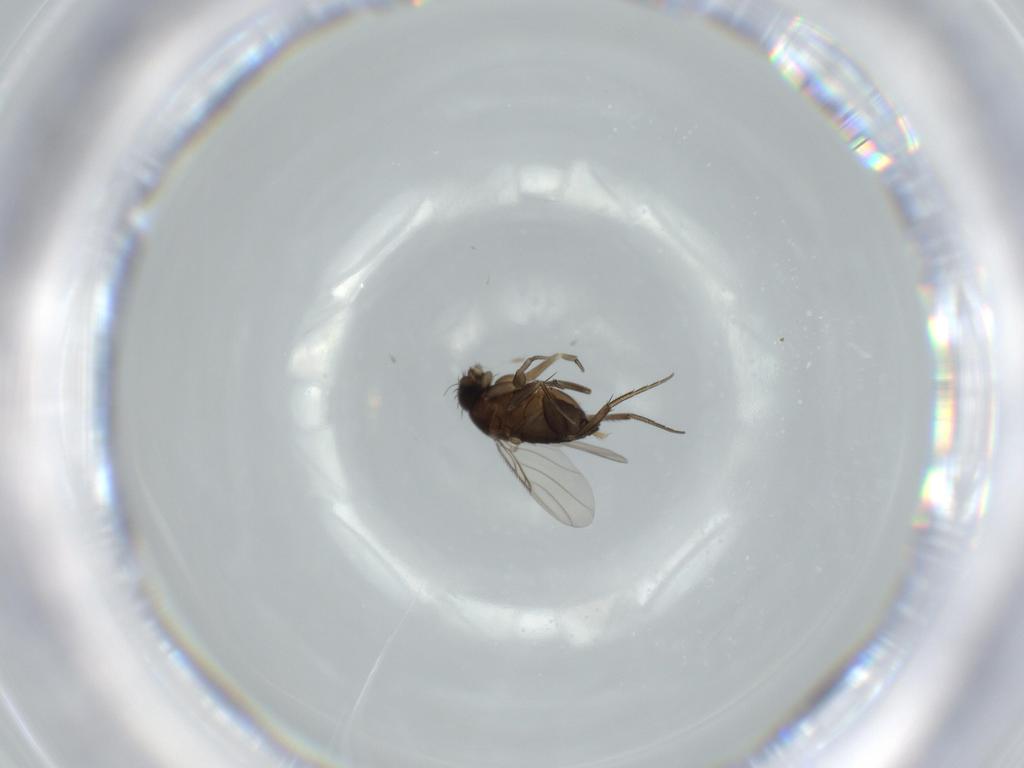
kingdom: Animalia
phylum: Arthropoda
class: Insecta
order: Diptera
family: Phoridae
